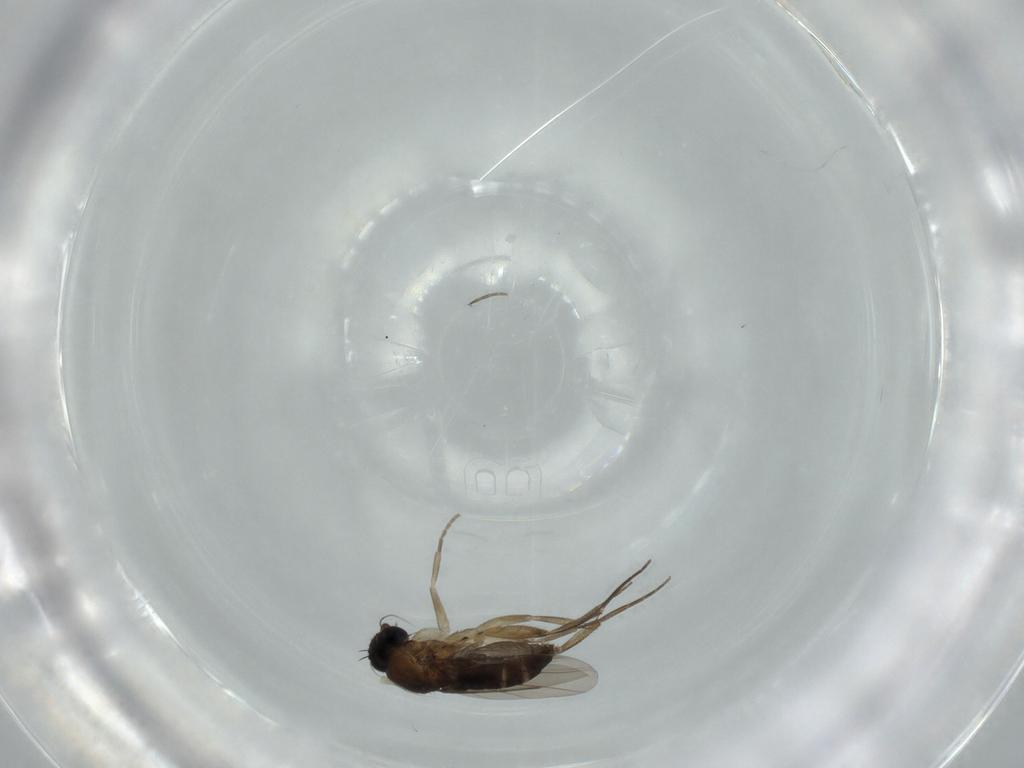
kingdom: Animalia
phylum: Arthropoda
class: Insecta
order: Diptera
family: Phoridae
